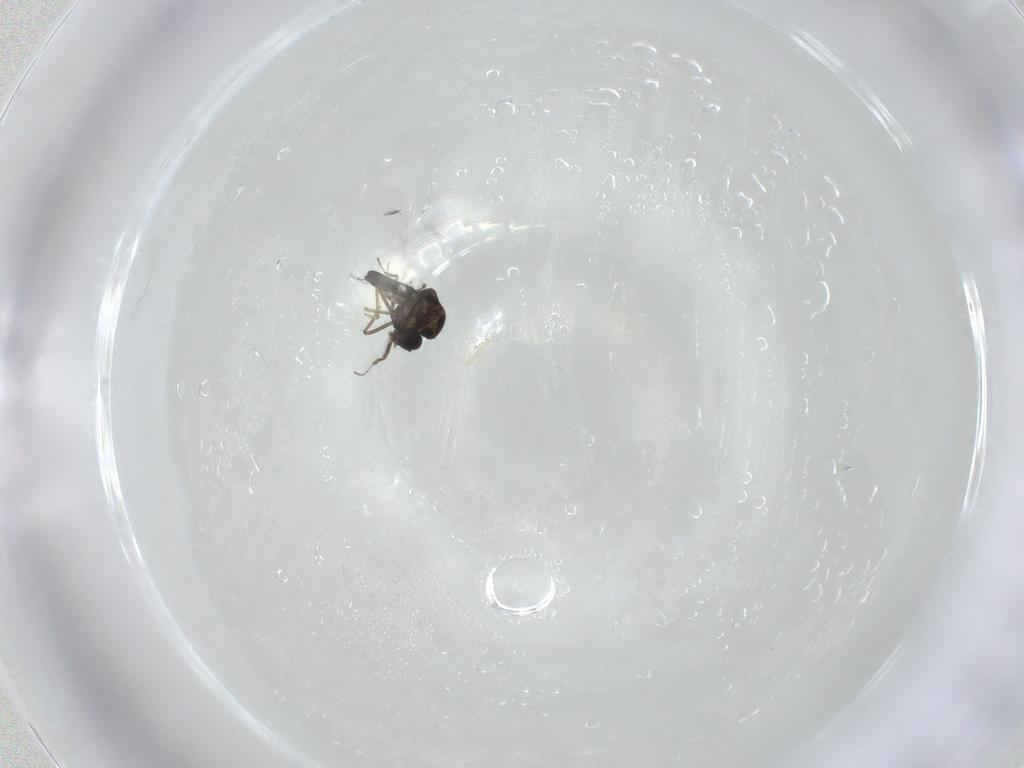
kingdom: Animalia
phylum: Arthropoda
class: Insecta
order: Diptera
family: Ceratopogonidae
